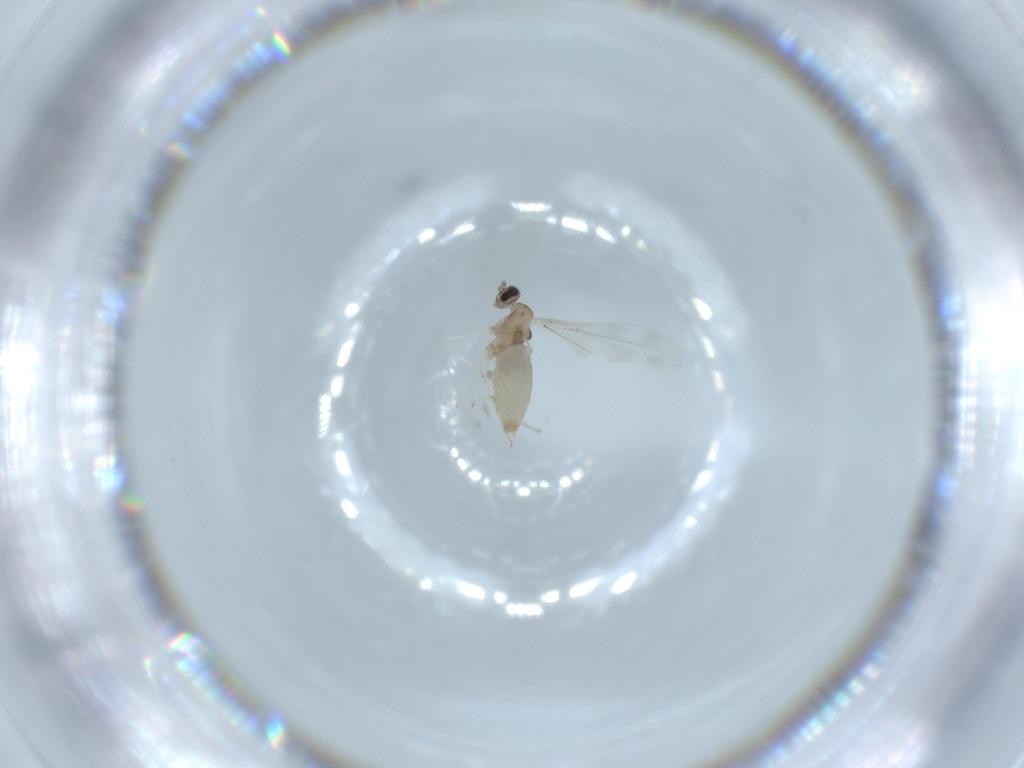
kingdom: Animalia
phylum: Arthropoda
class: Insecta
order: Diptera
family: Cecidomyiidae
